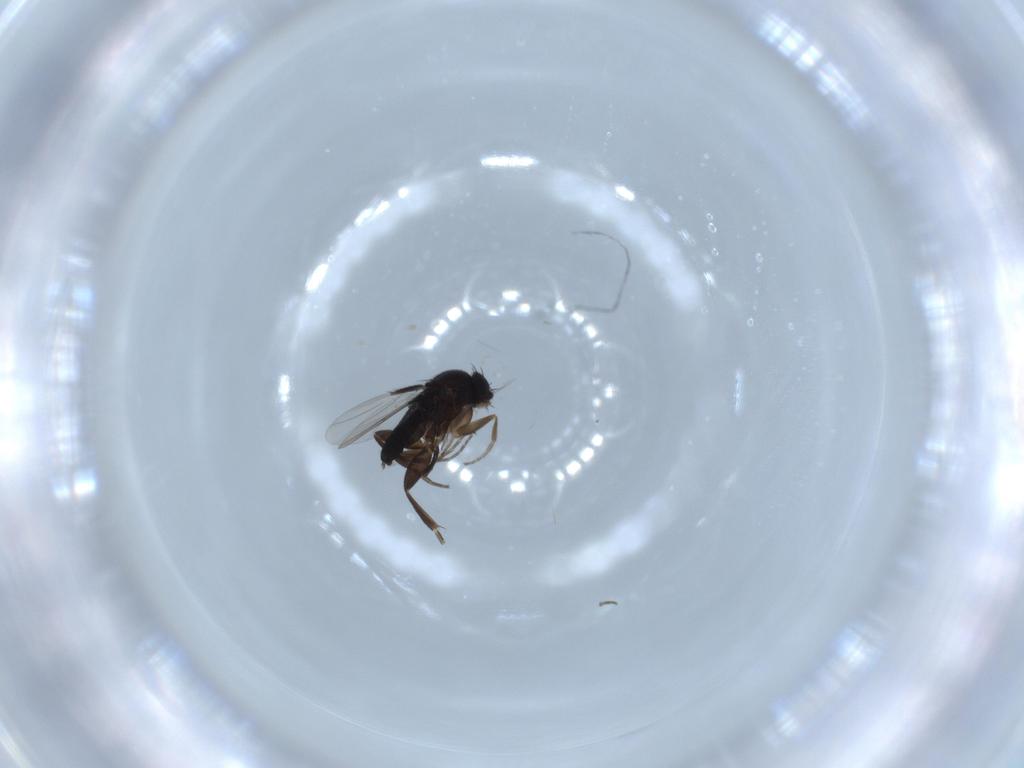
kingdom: Animalia
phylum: Arthropoda
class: Insecta
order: Diptera
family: Phoridae
